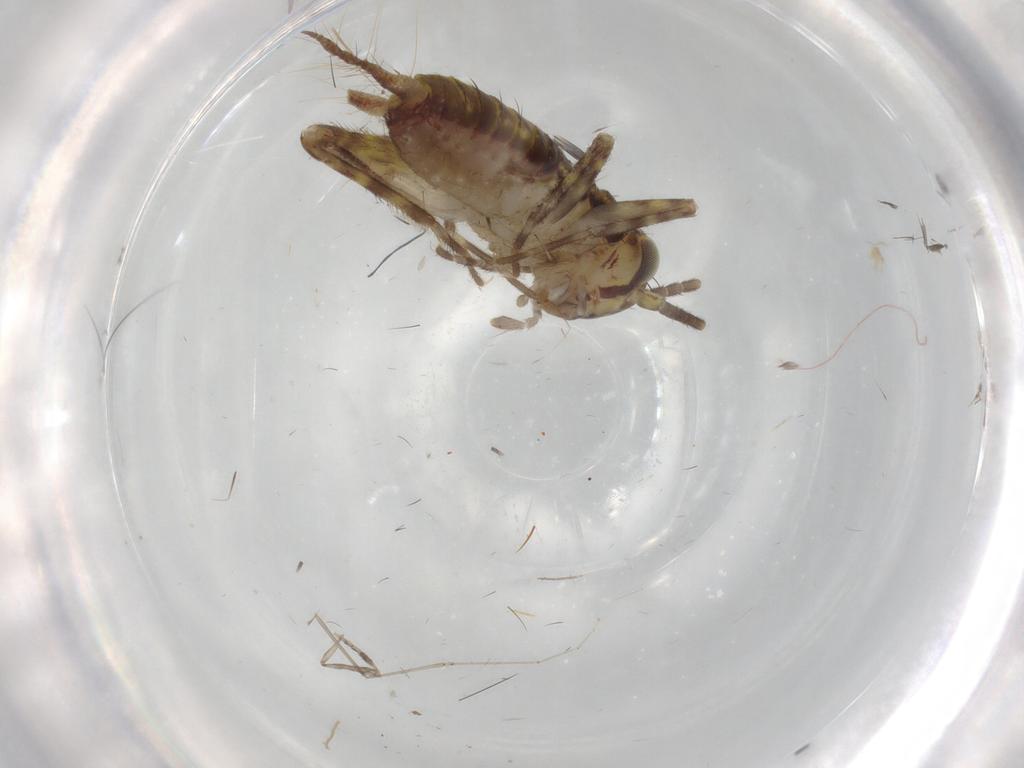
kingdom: Animalia
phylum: Arthropoda
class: Insecta
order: Orthoptera
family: Gryllidae
